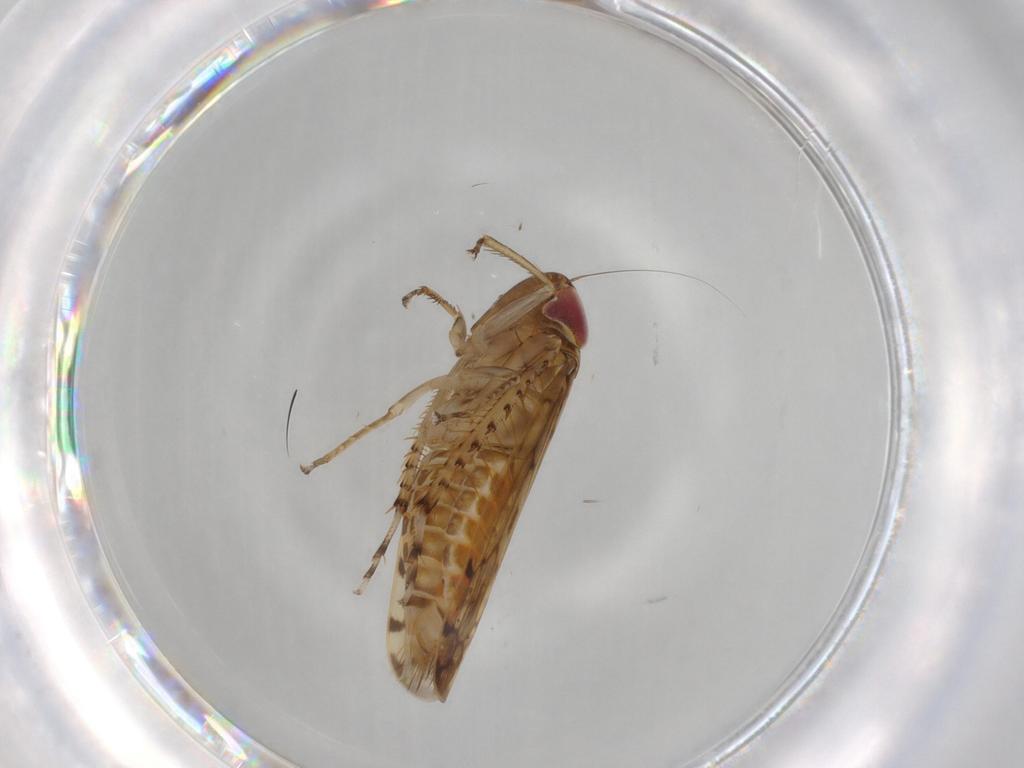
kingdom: Animalia
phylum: Arthropoda
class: Insecta
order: Hemiptera
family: Cicadellidae
